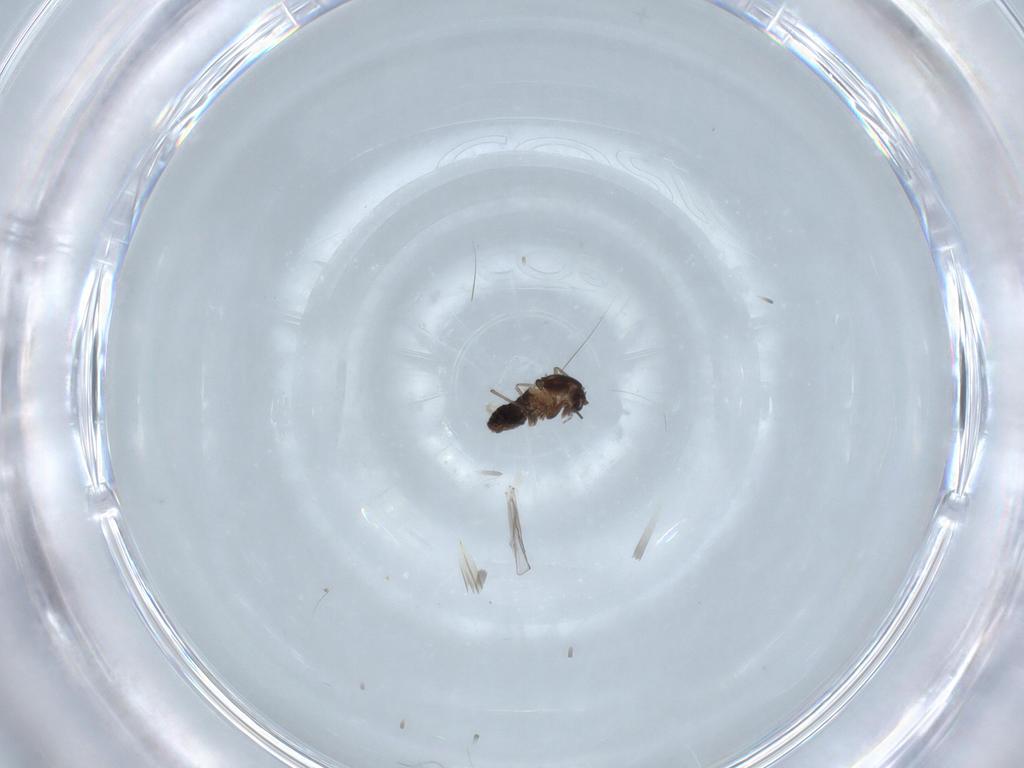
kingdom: Animalia
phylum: Arthropoda
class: Insecta
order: Diptera
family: Chironomidae
